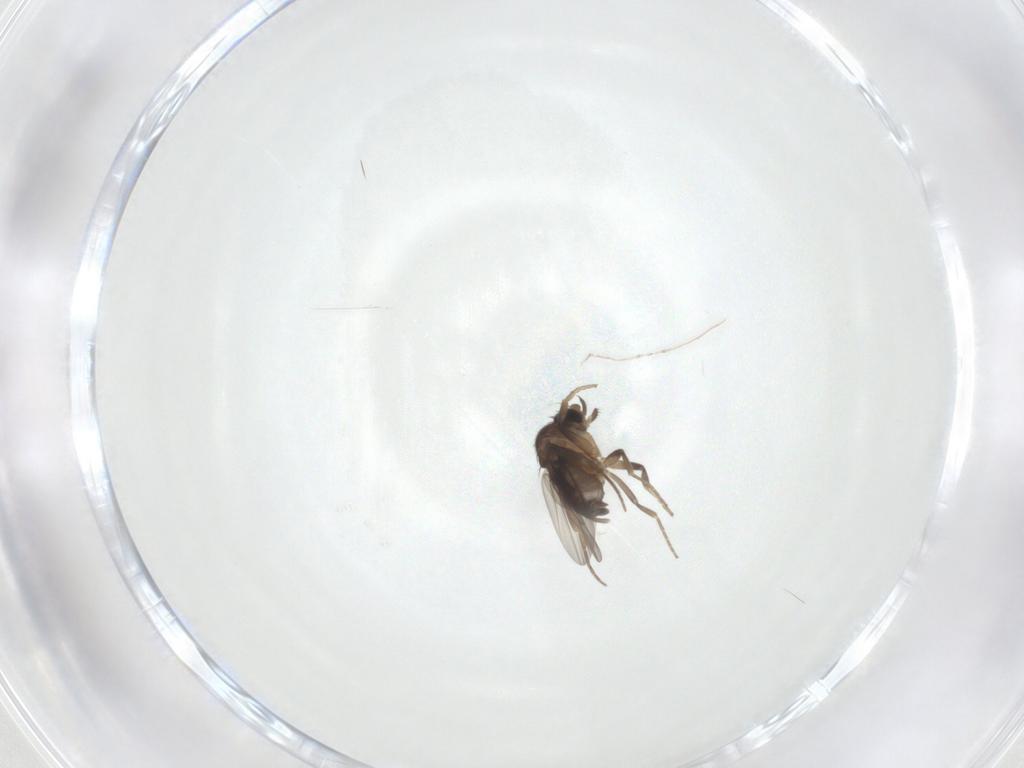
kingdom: Animalia
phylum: Arthropoda
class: Insecta
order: Diptera
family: Phoridae
